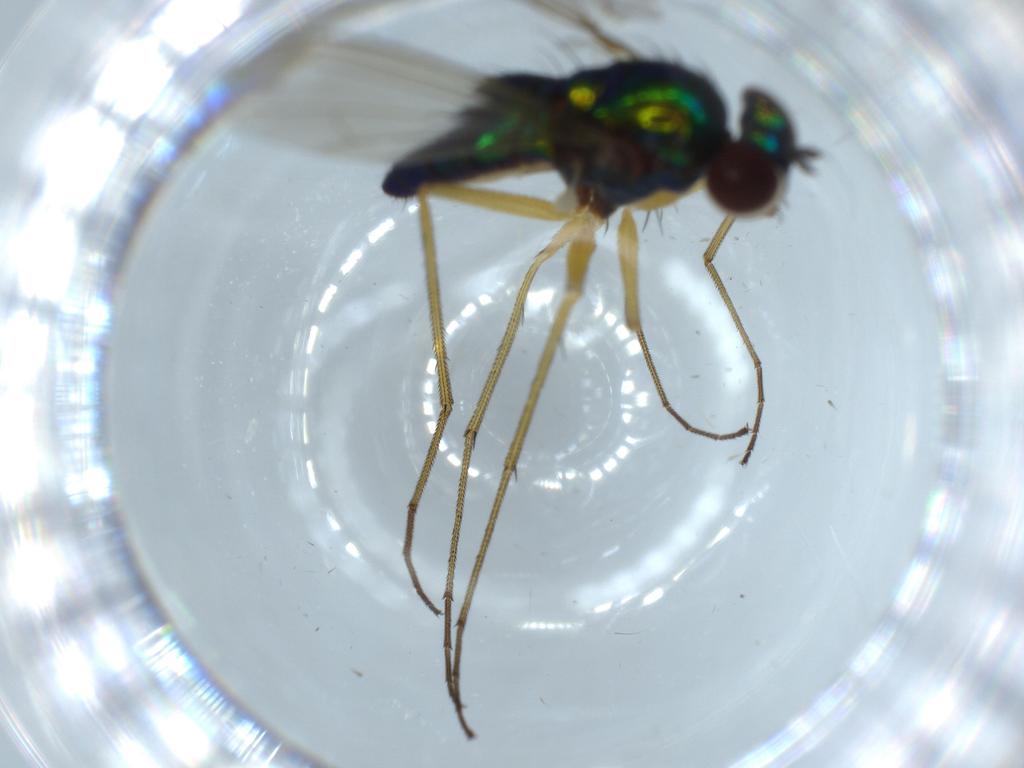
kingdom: Animalia
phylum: Arthropoda
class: Insecta
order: Diptera
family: Dolichopodidae
